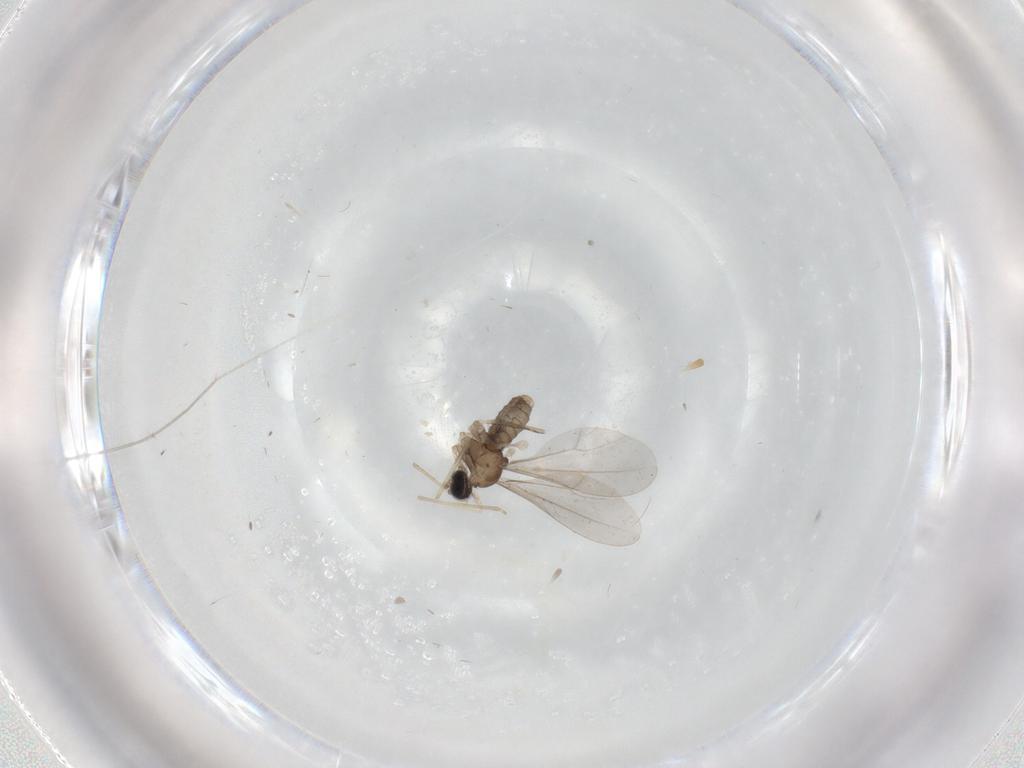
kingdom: Animalia
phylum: Arthropoda
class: Insecta
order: Diptera
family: Cecidomyiidae
